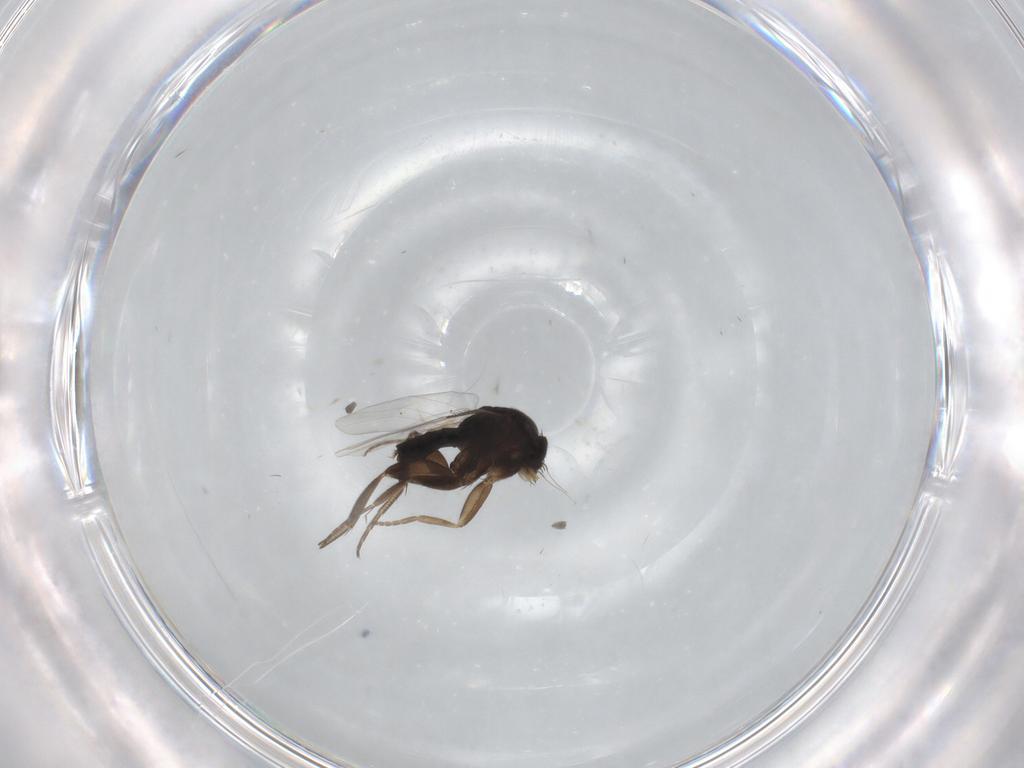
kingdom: Animalia
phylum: Arthropoda
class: Insecta
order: Diptera
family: Phoridae
